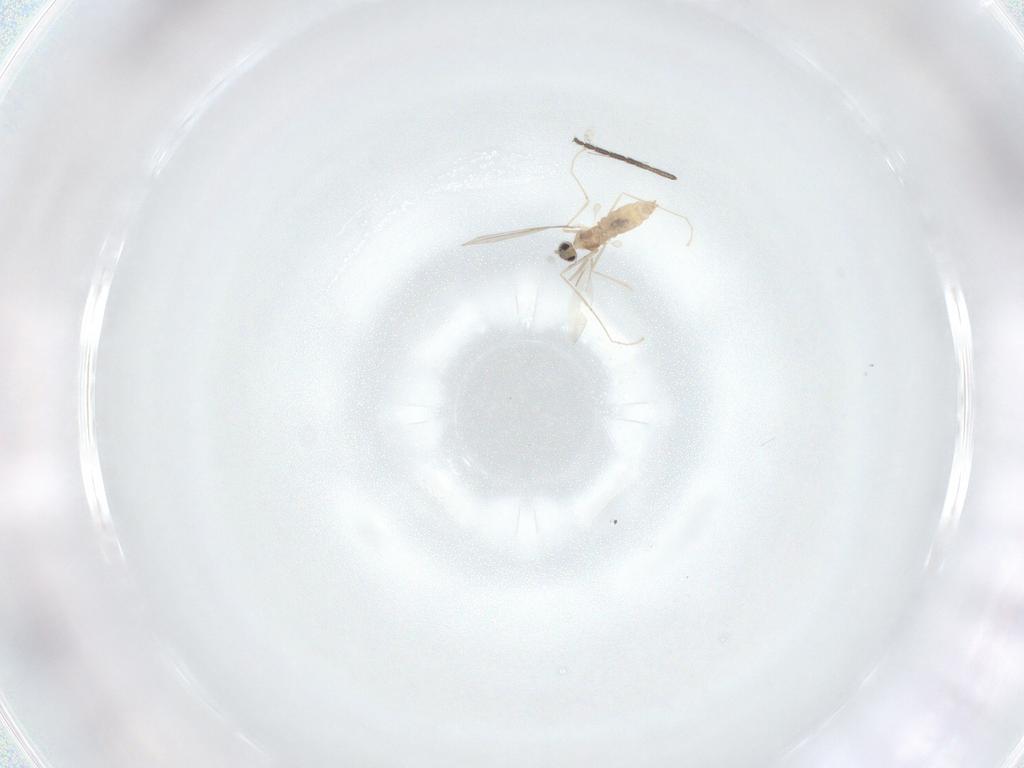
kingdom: Animalia
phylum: Arthropoda
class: Insecta
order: Diptera
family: Cecidomyiidae
